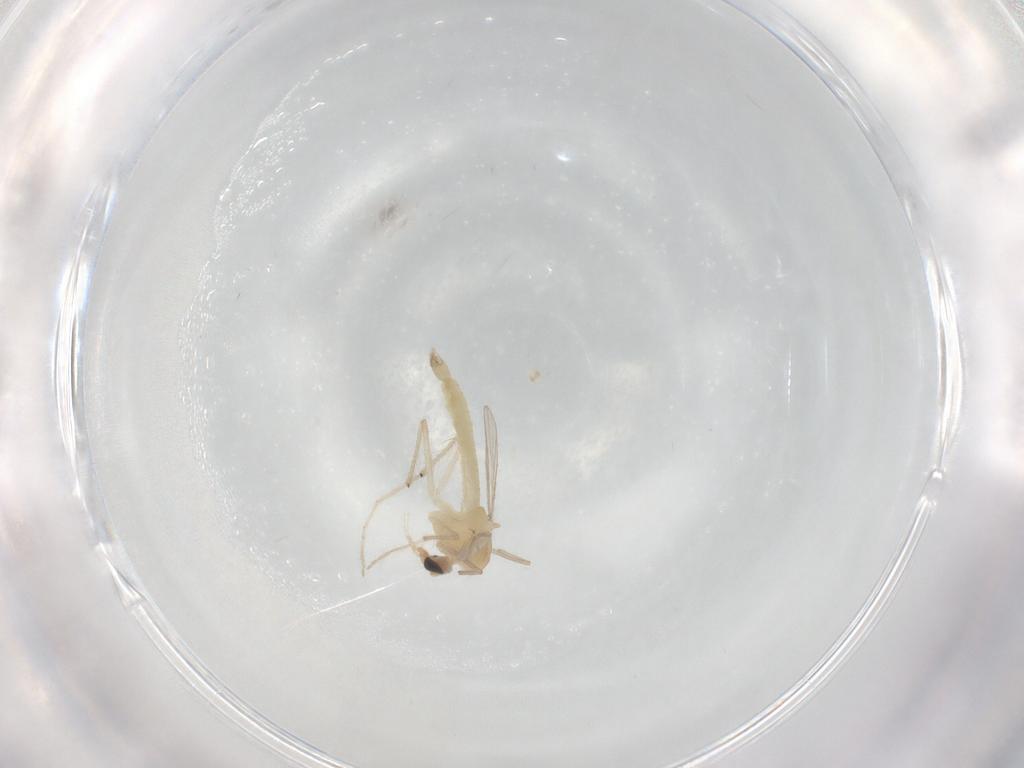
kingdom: Animalia
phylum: Arthropoda
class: Insecta
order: Diptera
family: Chironomidae
